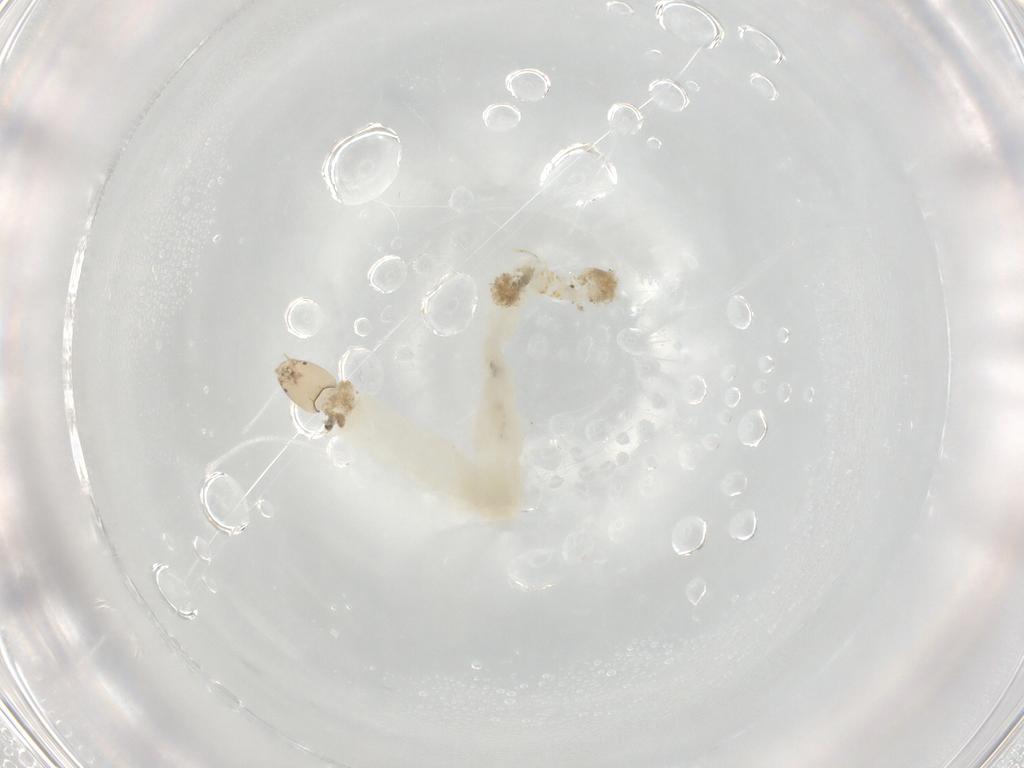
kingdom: Animalia
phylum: Arthropoda
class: Insecta
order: Diptera
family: Chironomidae
